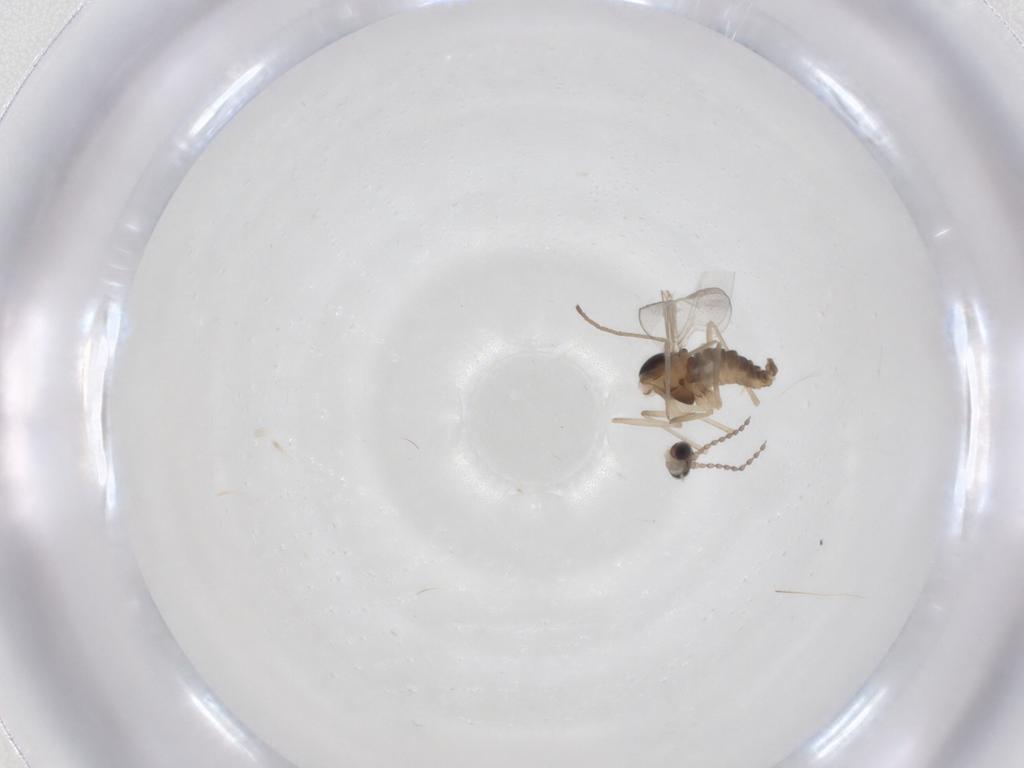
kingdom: Animalia
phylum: Arthropoda
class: Insecta
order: Diptera
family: Cecidomyiidae
